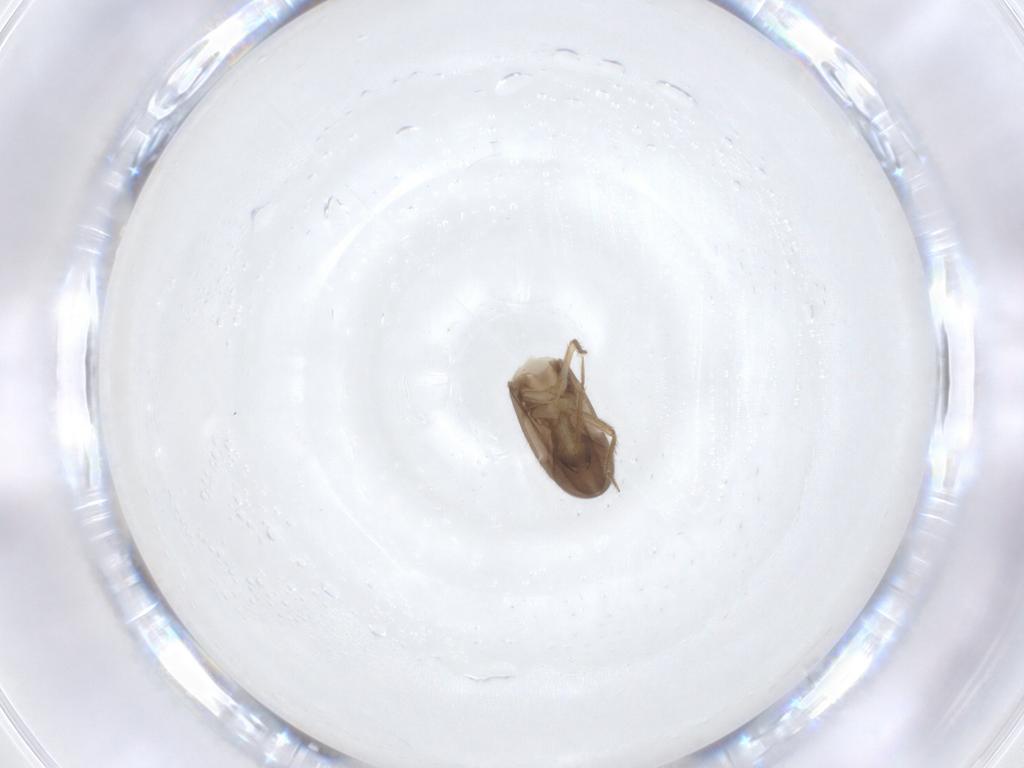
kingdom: Animalia
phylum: Arthropoda
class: Insecta
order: Hemiptera
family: Ceratocombidae
